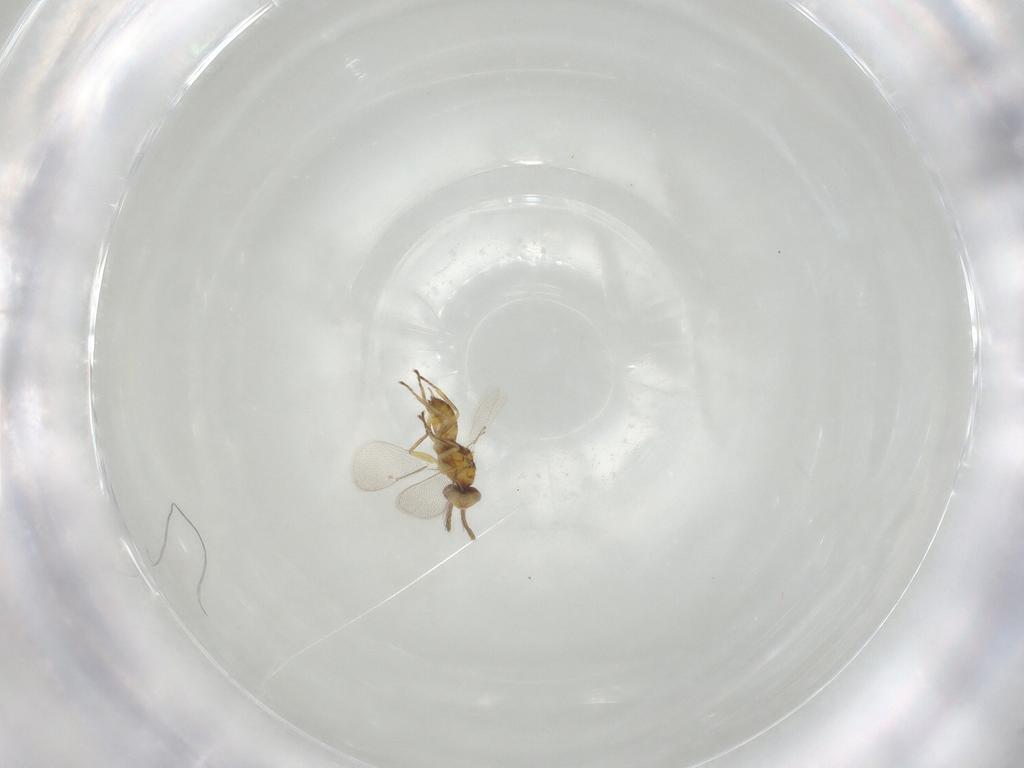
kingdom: Animalia
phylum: Arthropoda
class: Insecta
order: Hymenoptera
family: Eulophidae
